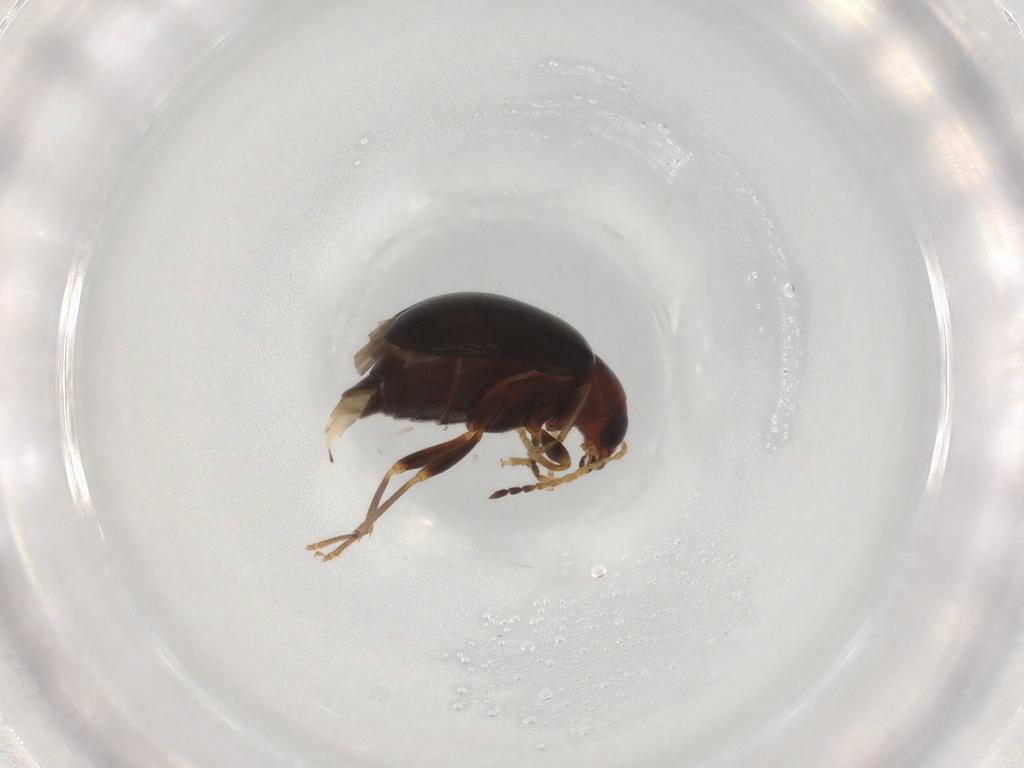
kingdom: Animalia
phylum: Arthropoda
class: Insecta
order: Coleoptera
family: Chrysomelidae
